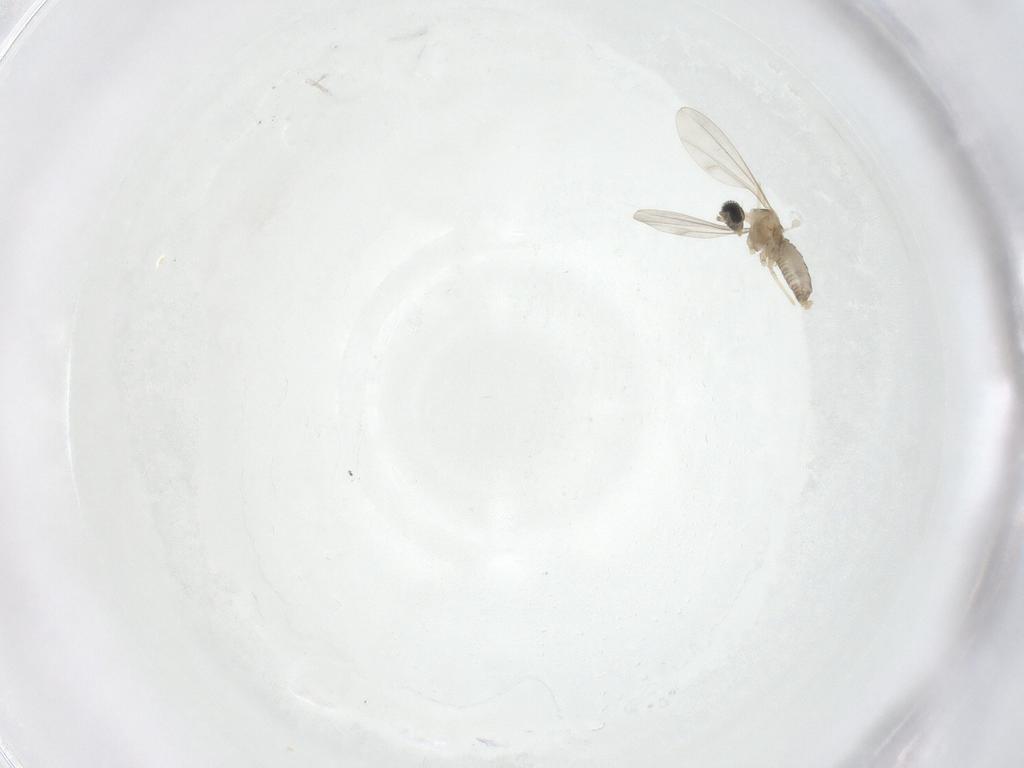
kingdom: Animalia
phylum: Arthropoda
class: Insecta
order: Diptera
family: Cecidomyiidae
